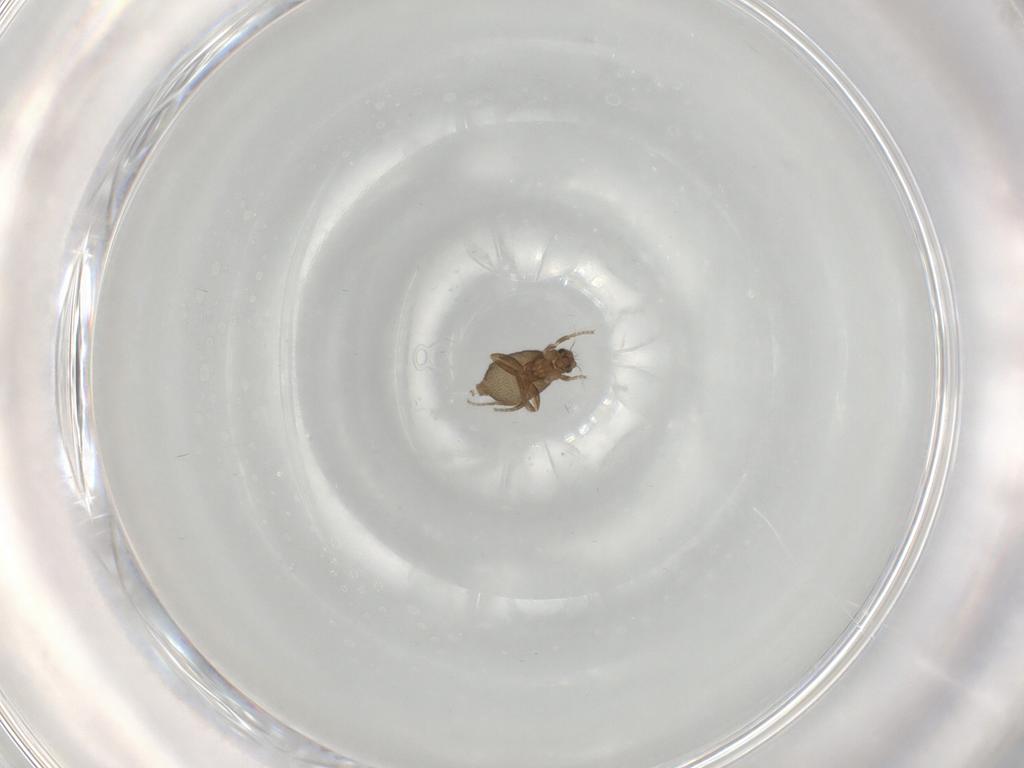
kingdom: Animalia
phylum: Arthropoda
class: Insecta
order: Diptera
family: Phoridae
